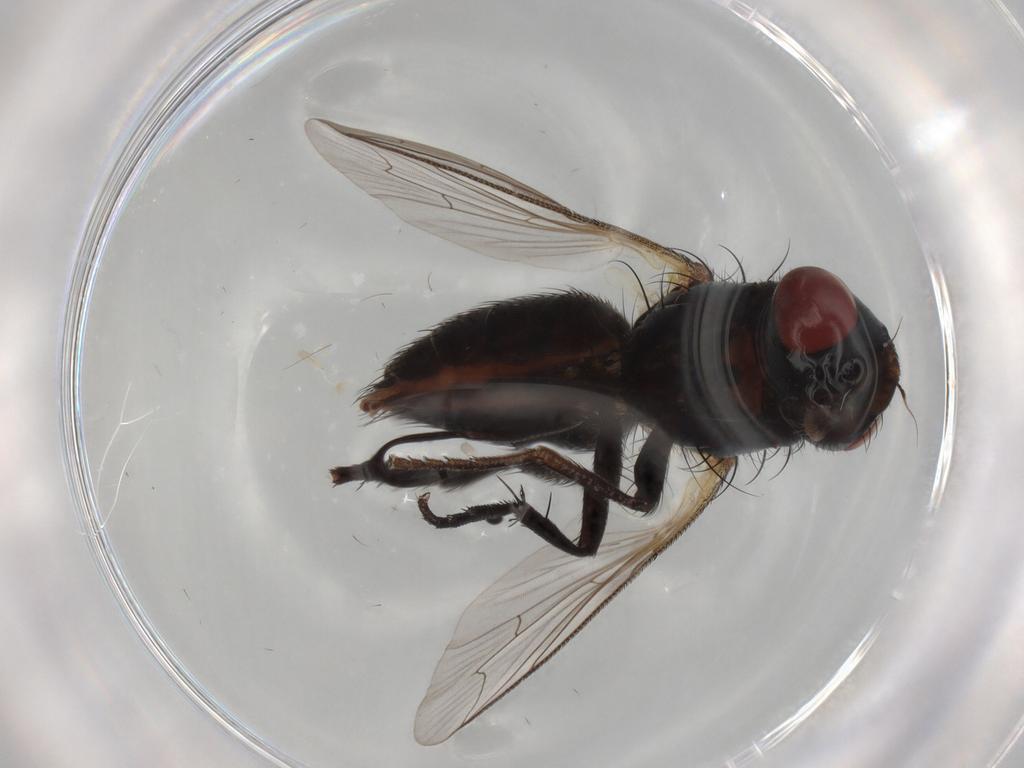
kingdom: Animalia
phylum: Arthropoda
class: Insecta
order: Diptera
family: Sarcophagidae
